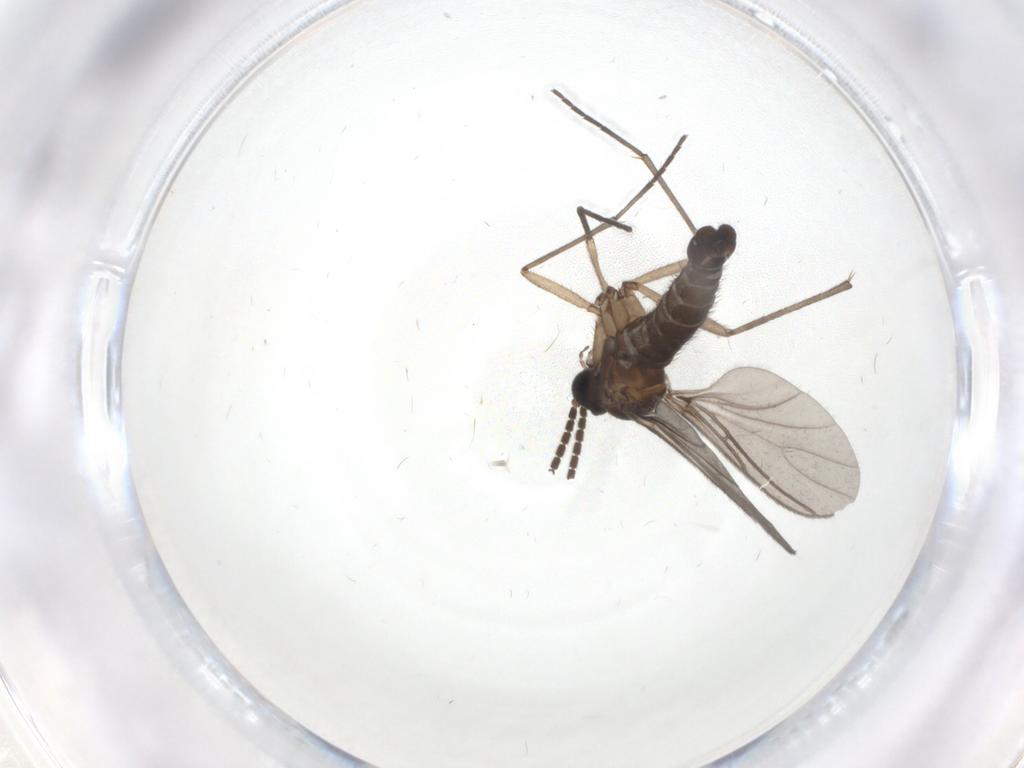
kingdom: Animalia
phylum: Arthropoda
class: Insecta
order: Diptera
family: Sciaridae
